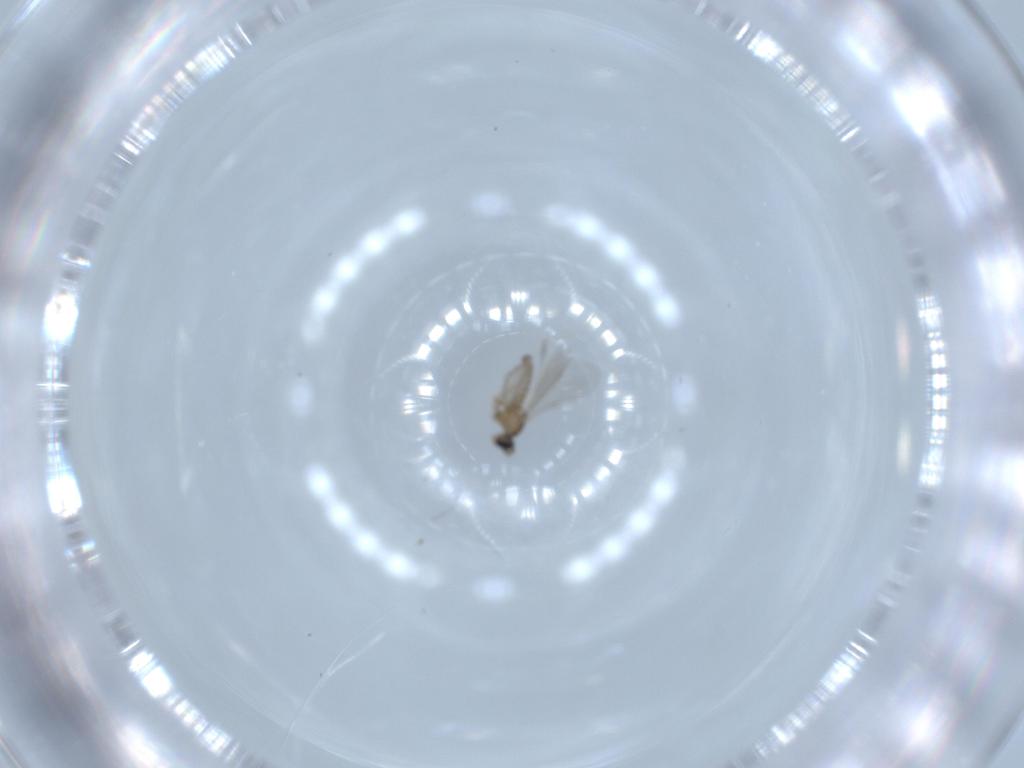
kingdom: Animalia
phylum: Arthropoda
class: Insecta
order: Diptera
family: Cecidomyiidae
